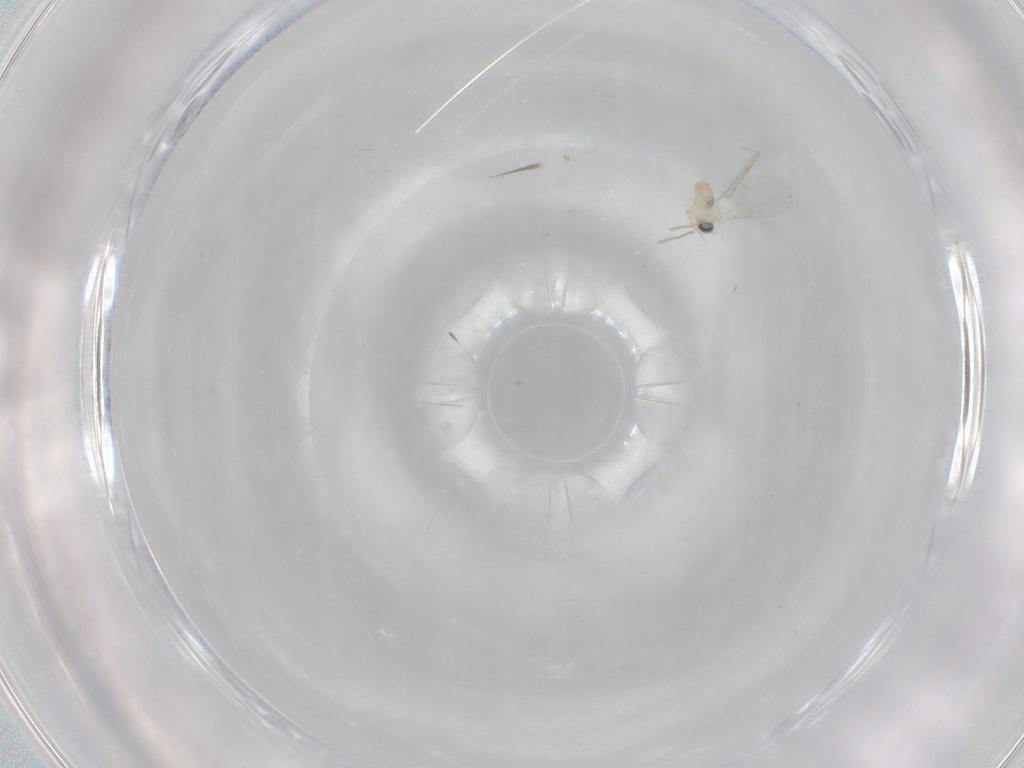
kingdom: Animalia
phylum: Arthropoda
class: Insecta
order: Diptera
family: Cecidomyiidae
